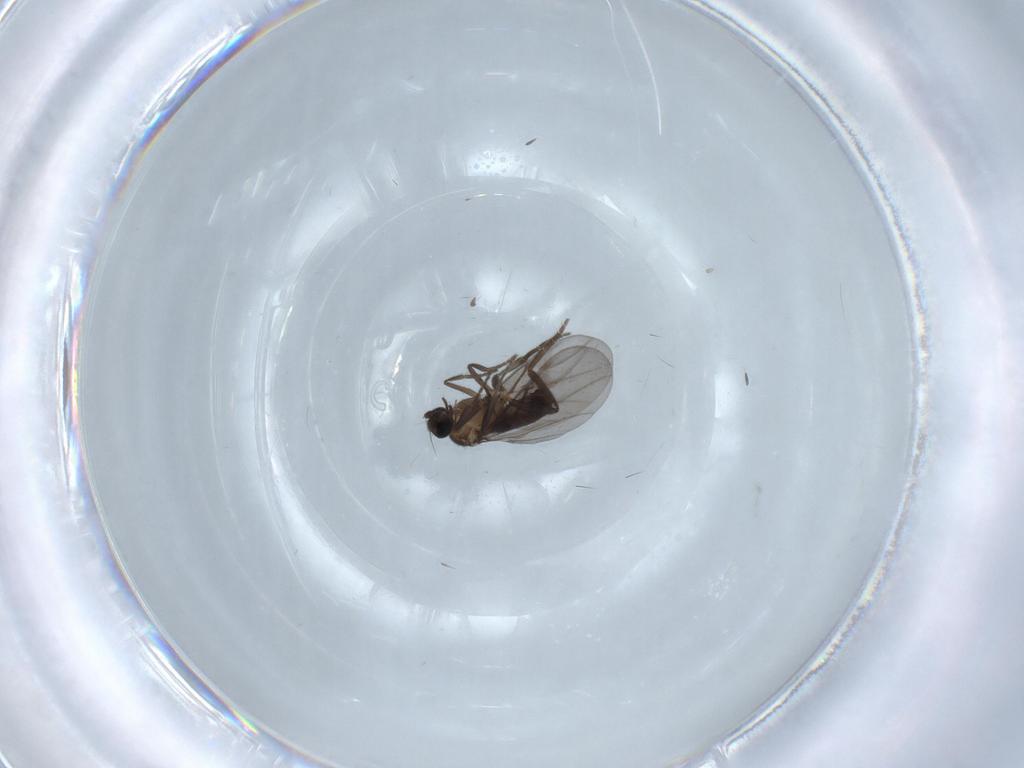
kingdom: Animalia
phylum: Arthropoda
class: Insecta
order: Diptera
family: Phoridae
